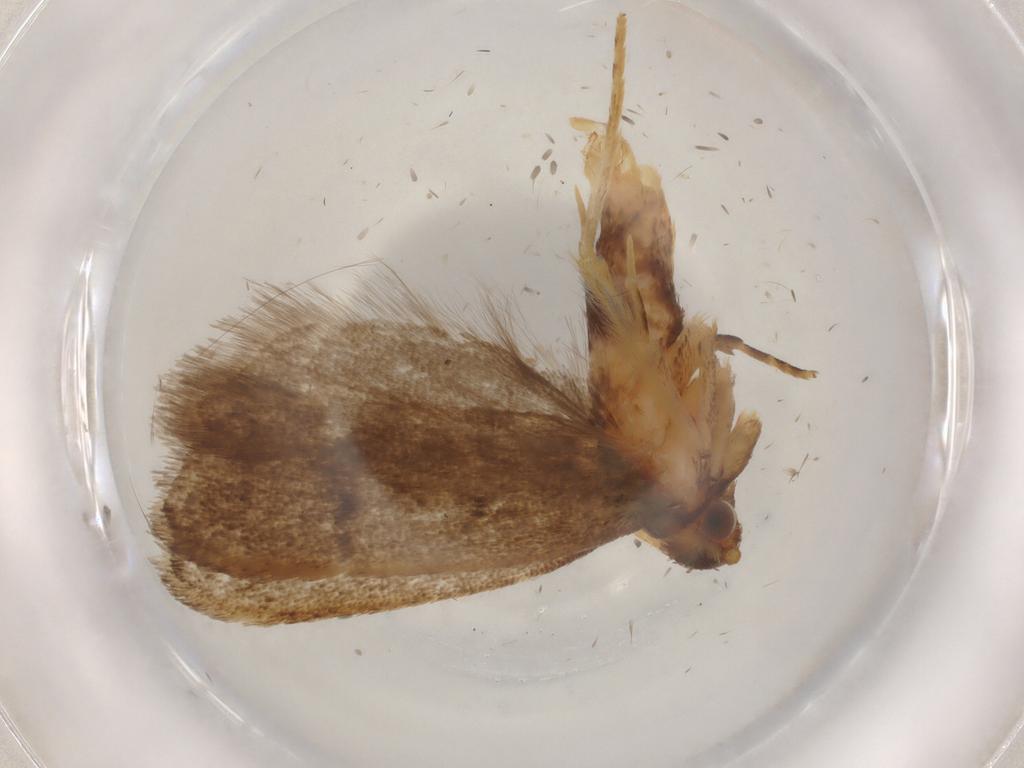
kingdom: Animalia
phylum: Arthropoda
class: Insecta
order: Lepidoptera
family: Lecithoceridae
